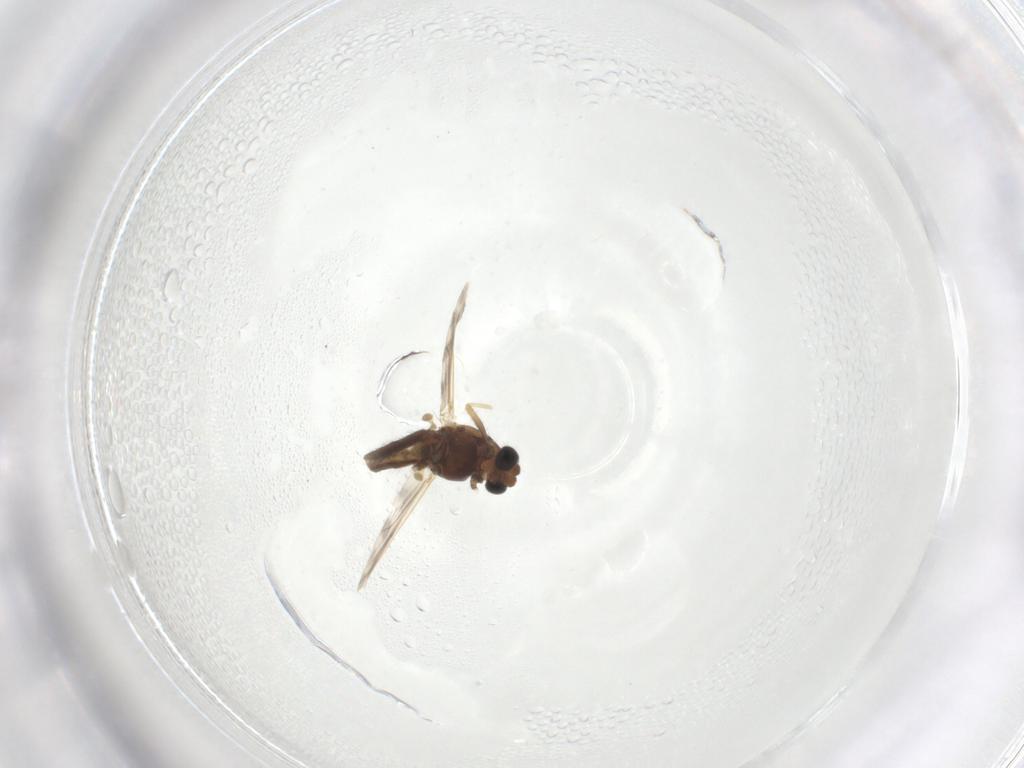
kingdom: Animalia
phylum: Arthropoda
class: Insecta
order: Diptera
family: Chironomidae
